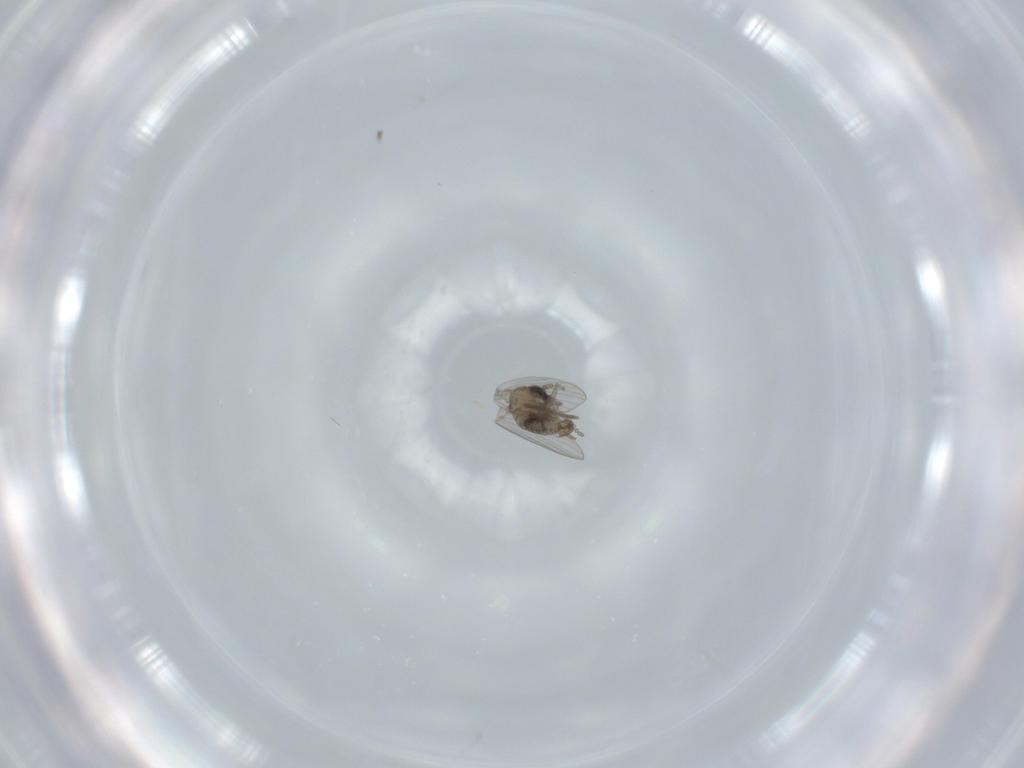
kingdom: Animalia
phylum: Arthropoda
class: Insecta
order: Diptera
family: Psychodidae
